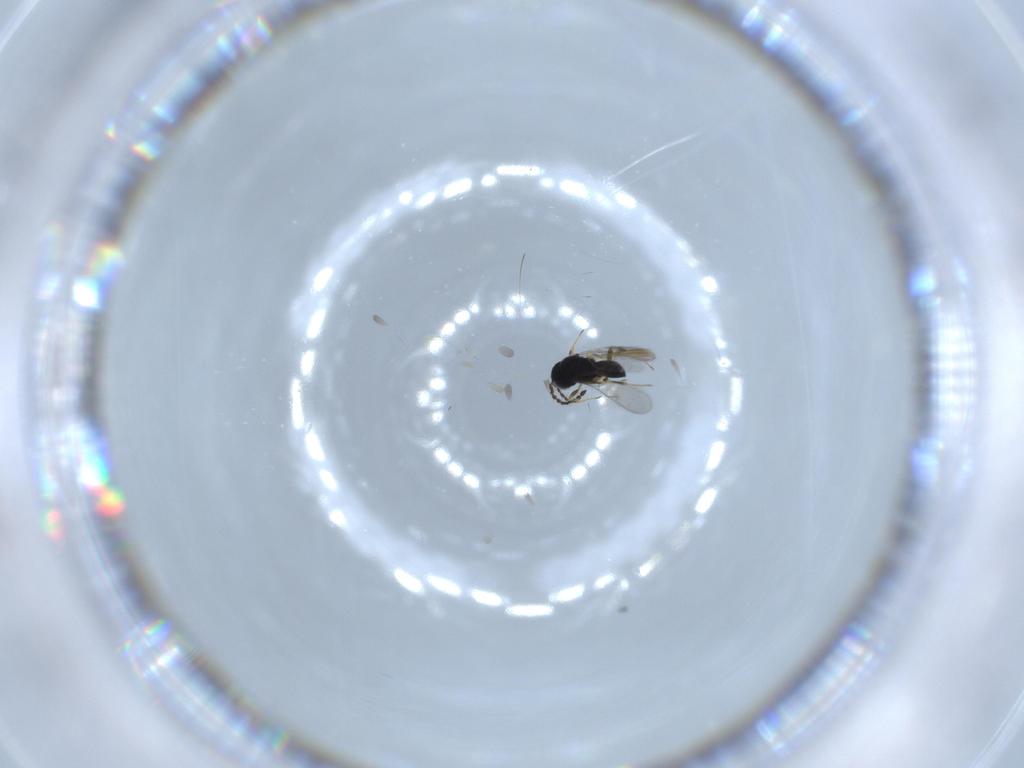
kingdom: Animalia
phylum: Arthropoda
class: Insecta
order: Hymenoptera
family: Scelionidae
